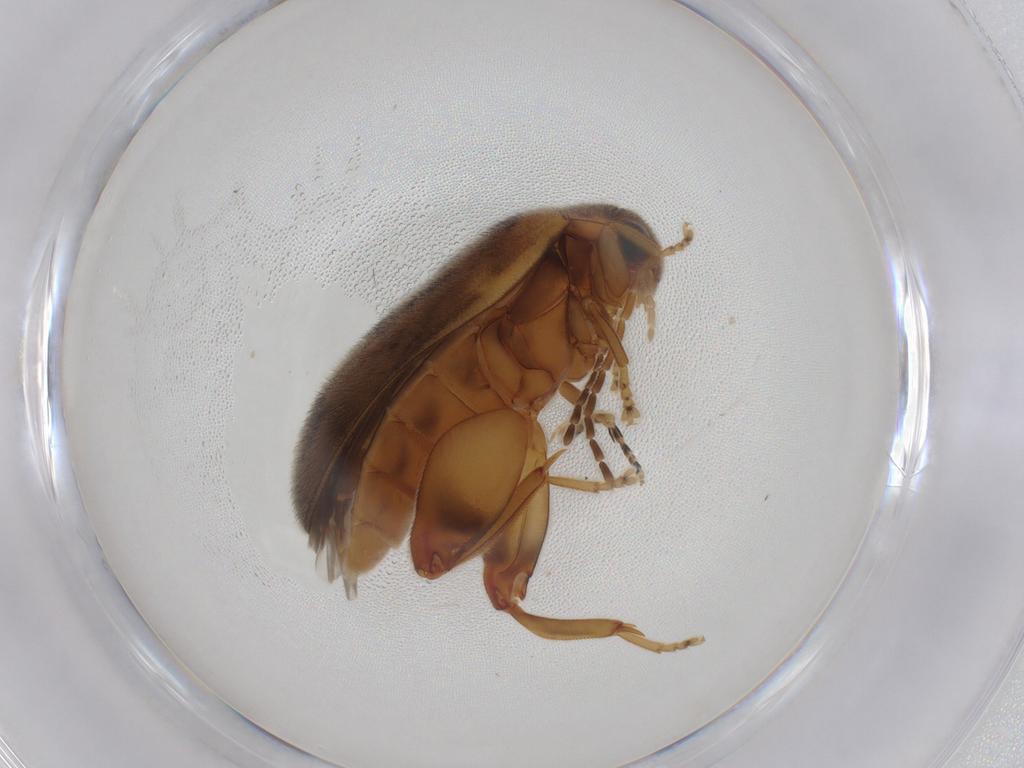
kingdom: Animalia
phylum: Arthropoda
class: Insecta
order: Coleoptera
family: Scirtidae
